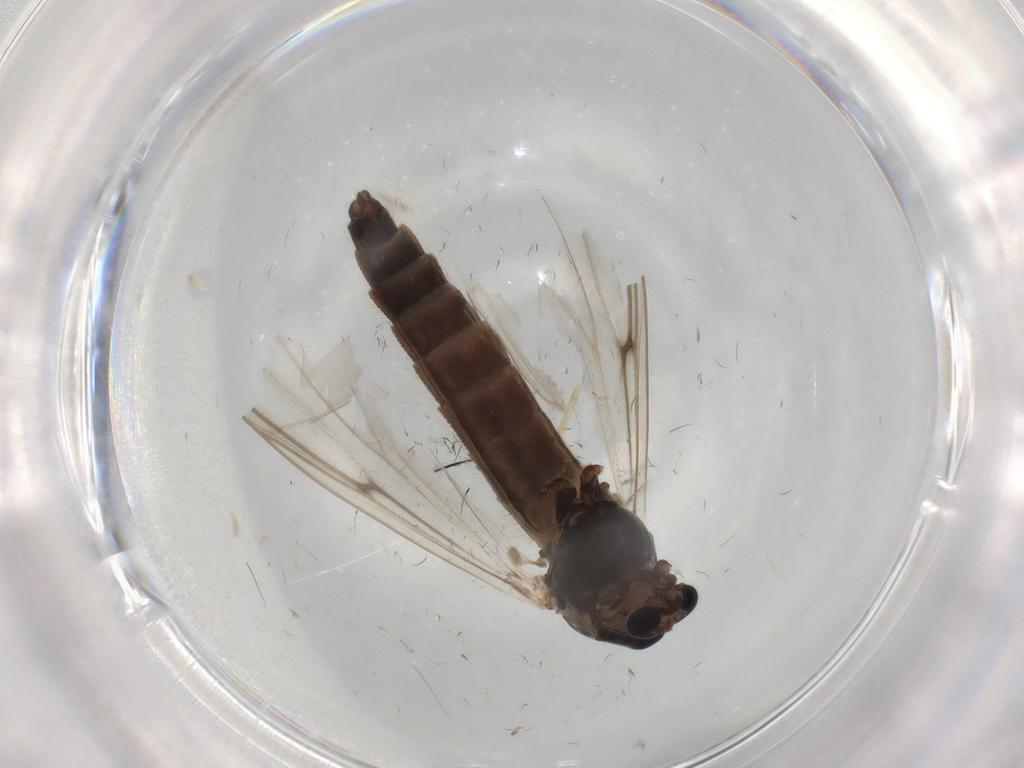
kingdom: Animalia
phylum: Arthropoda
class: Insecta
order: Diptera
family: Chironomidae
